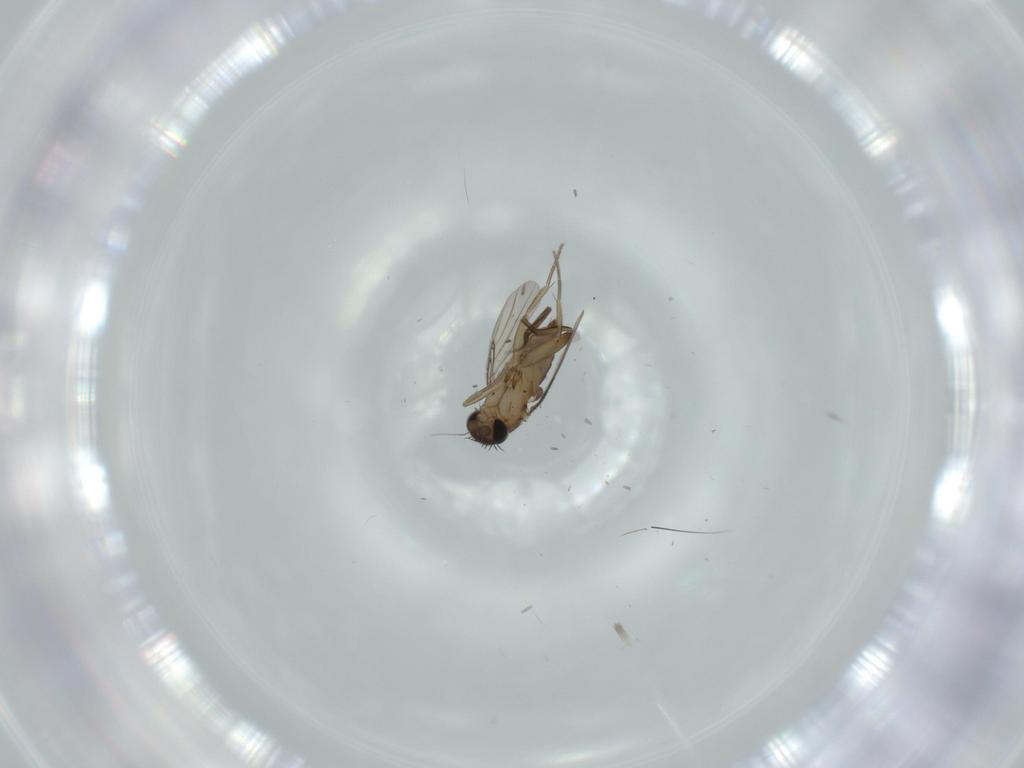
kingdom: Animalia
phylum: Arthropoda
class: Insecta
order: Diptera
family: Phoridae
